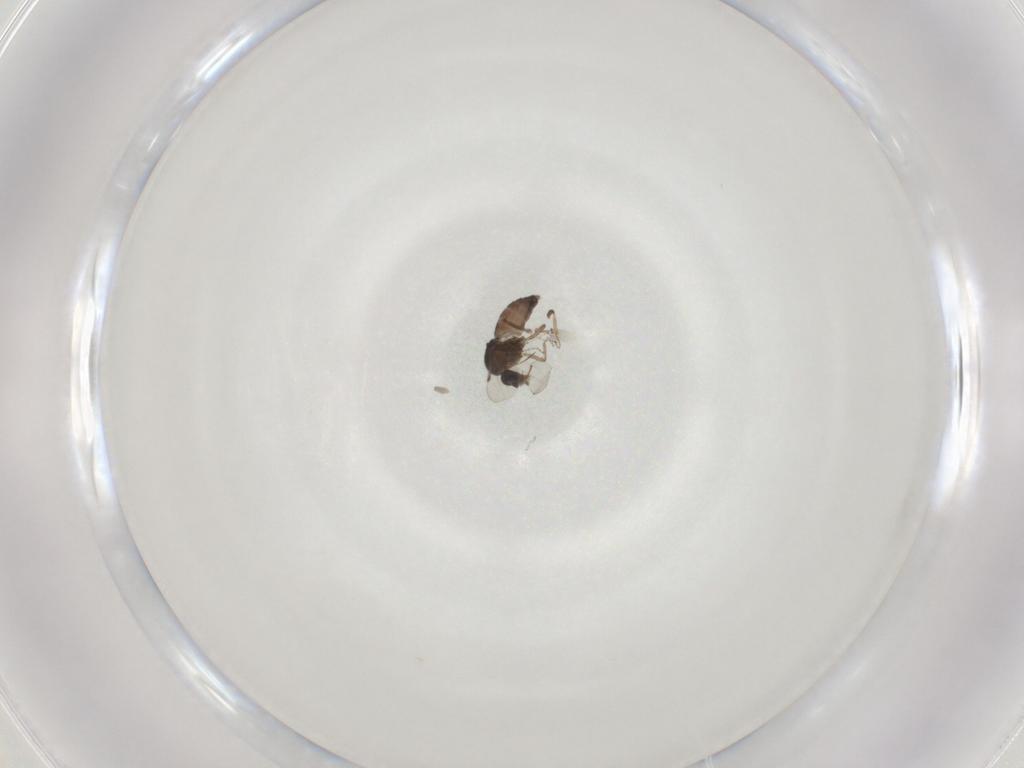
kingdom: Animalia
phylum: Arthropoda
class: Insecta
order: Diptera
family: Ceratopogonidae
